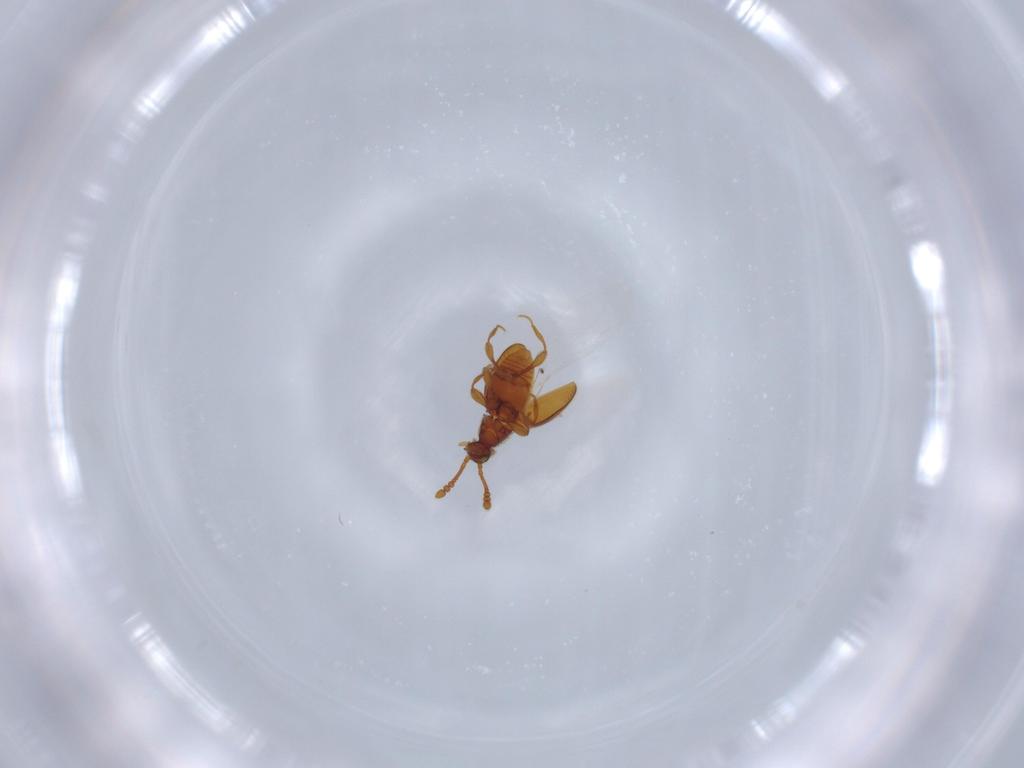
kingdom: Animalia
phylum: Arthropoda
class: Insecta
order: Coleoptera
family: Staphylinidae
